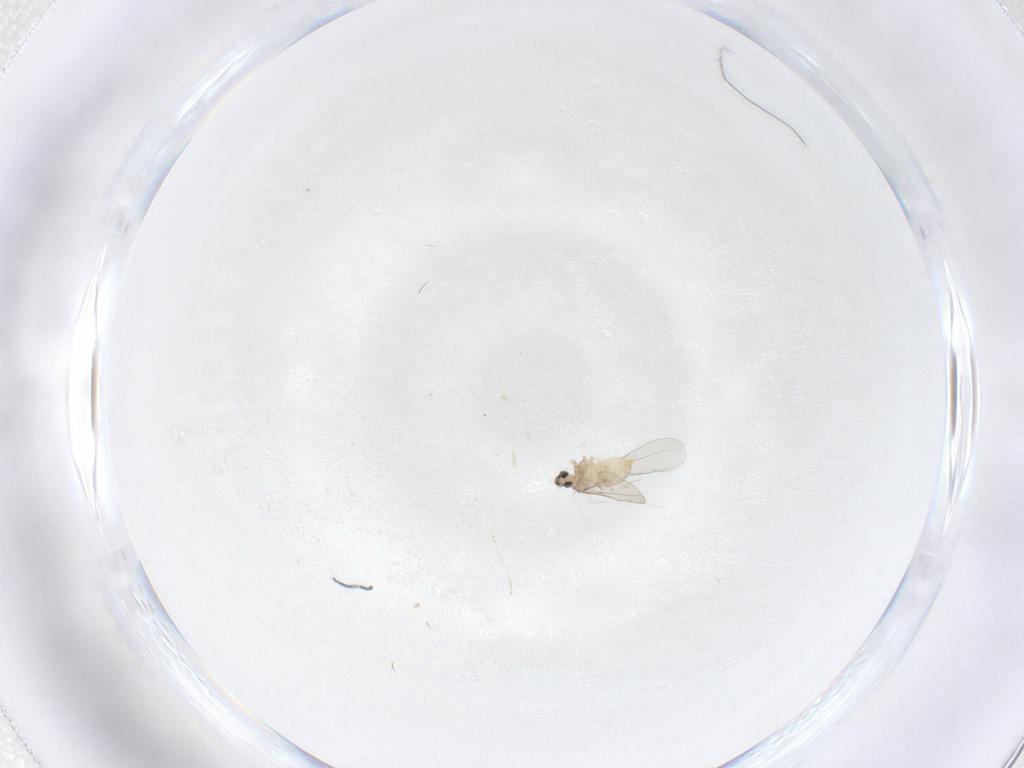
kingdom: Animalia
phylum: Arthropoda
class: Insecta
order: Diptera
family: Cecidomyiidae
